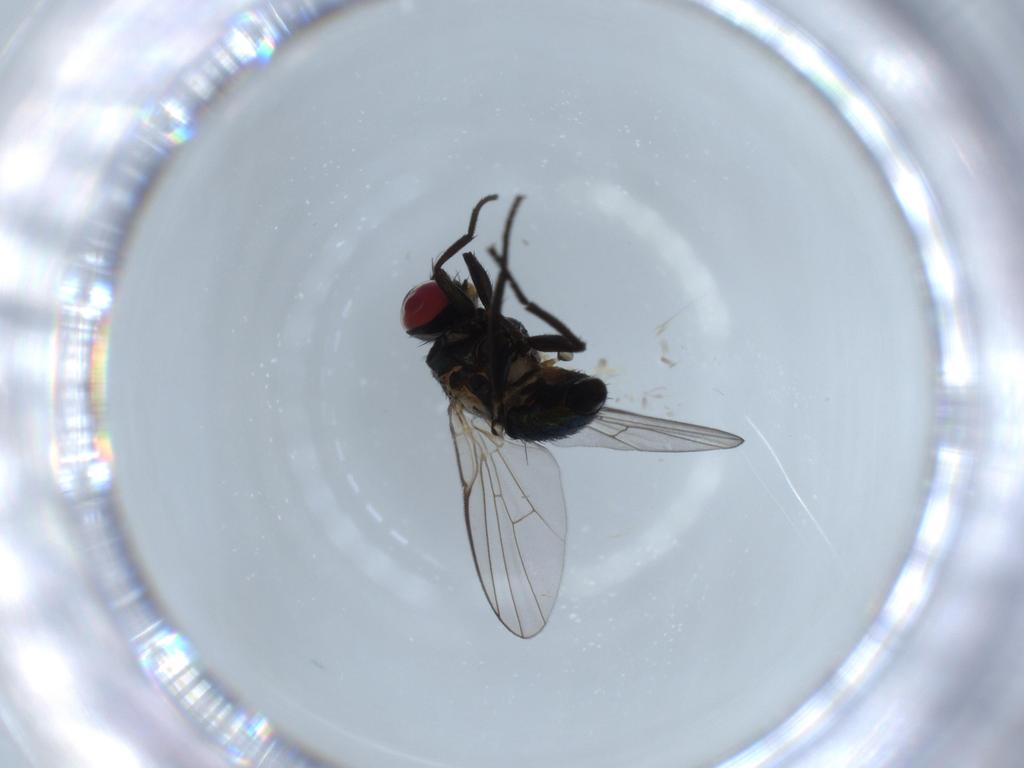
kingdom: Animalia
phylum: Arthropoda
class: Insecta
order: Diptera
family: Agromyzidae
